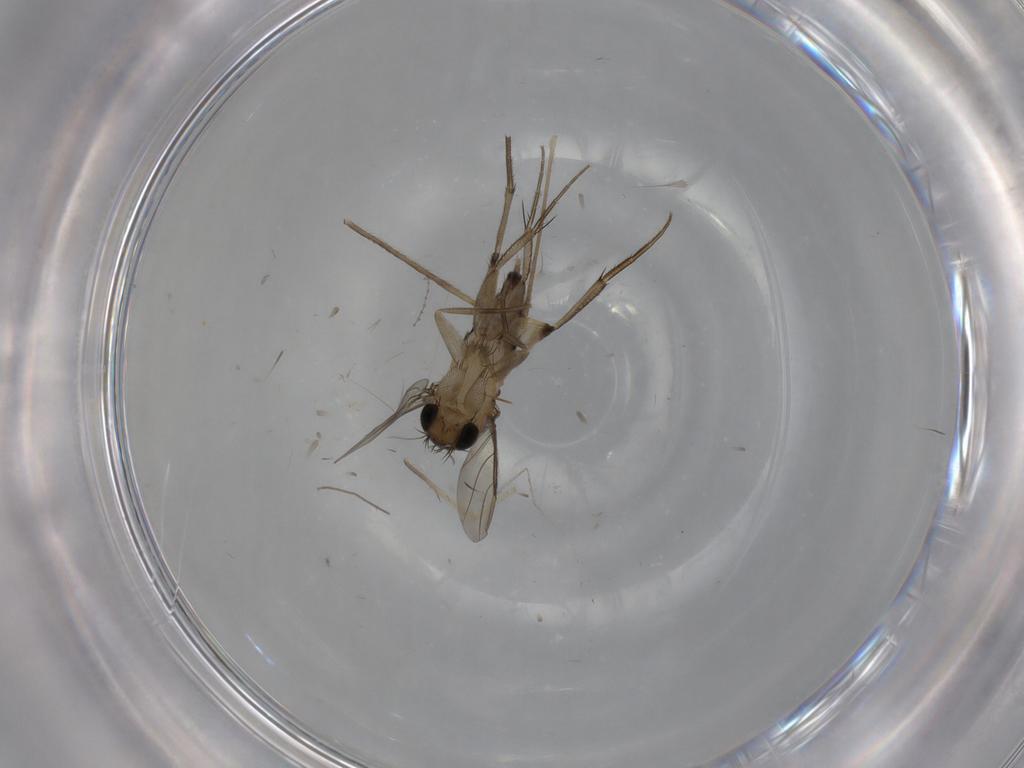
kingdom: Animalia
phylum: Arthropoda
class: Insecta
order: Diptera
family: Phoridae
